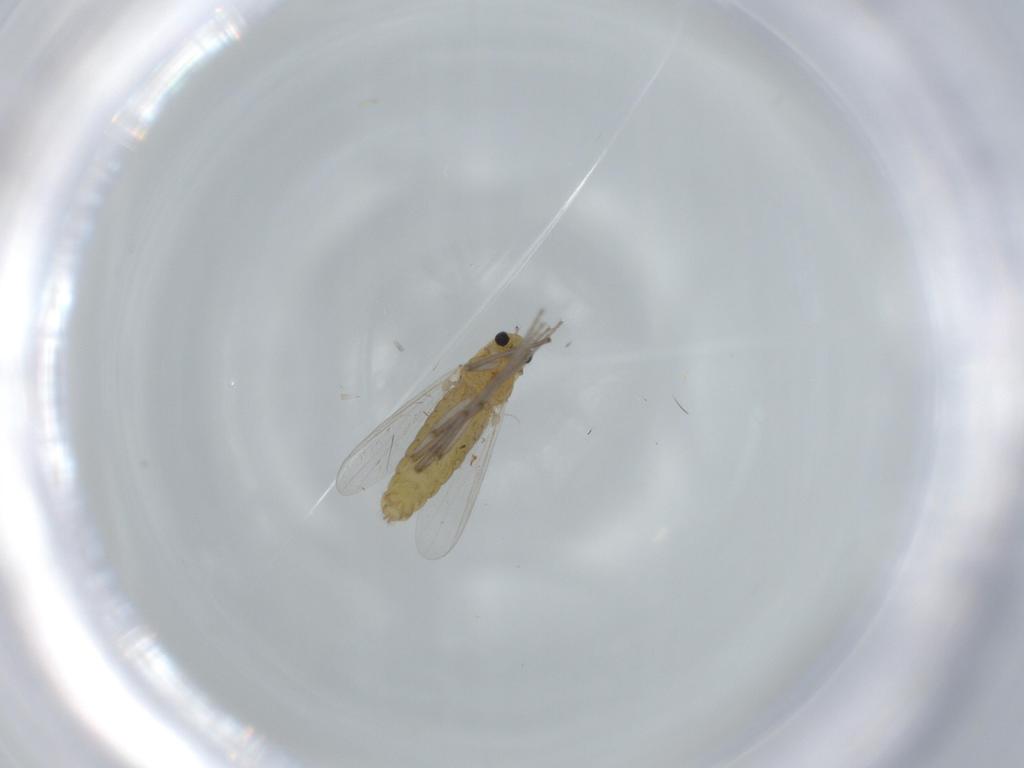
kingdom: Animalia
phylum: Arthropoda
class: Insecta
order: Diptera
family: Chironomidae
